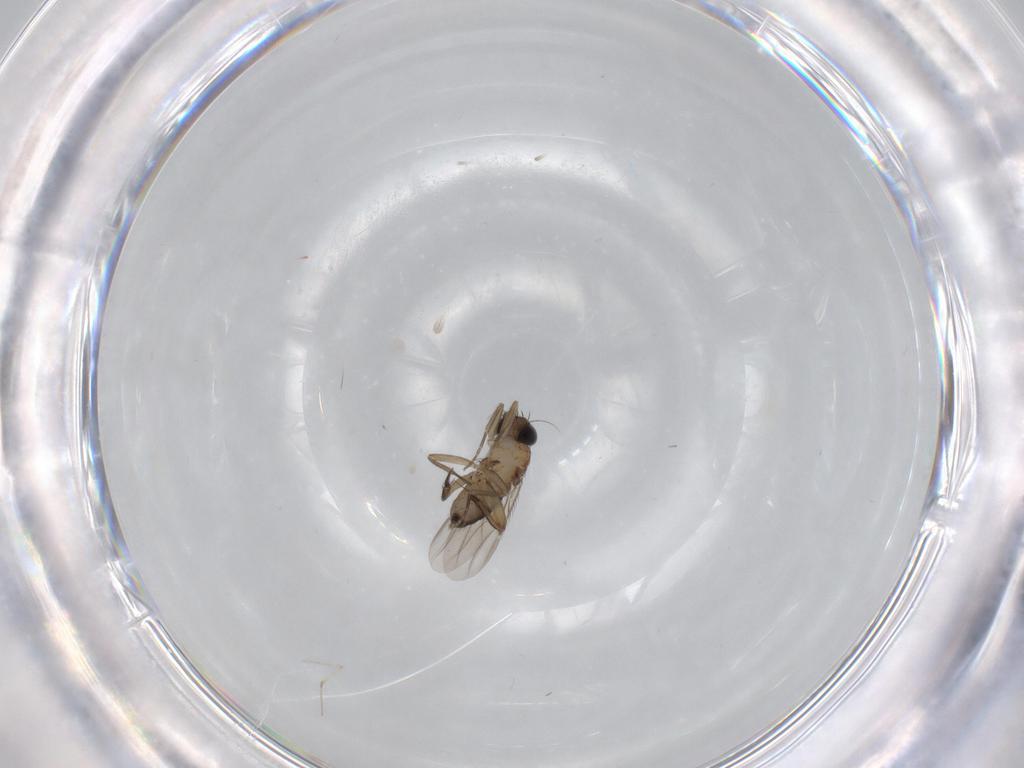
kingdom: Animalia
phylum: Arthropoda
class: Insecta
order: Diptera
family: Phoridae
